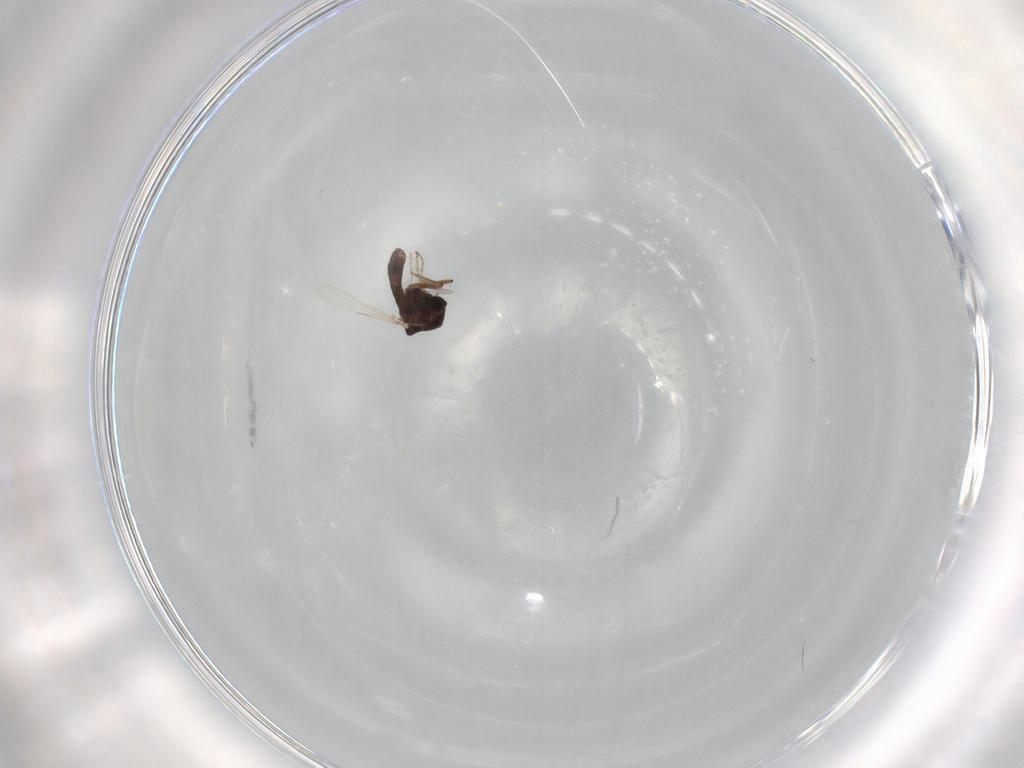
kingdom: Animalia
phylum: Arthropoda
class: Insecta
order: Diptera
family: Ceratopogonidae
